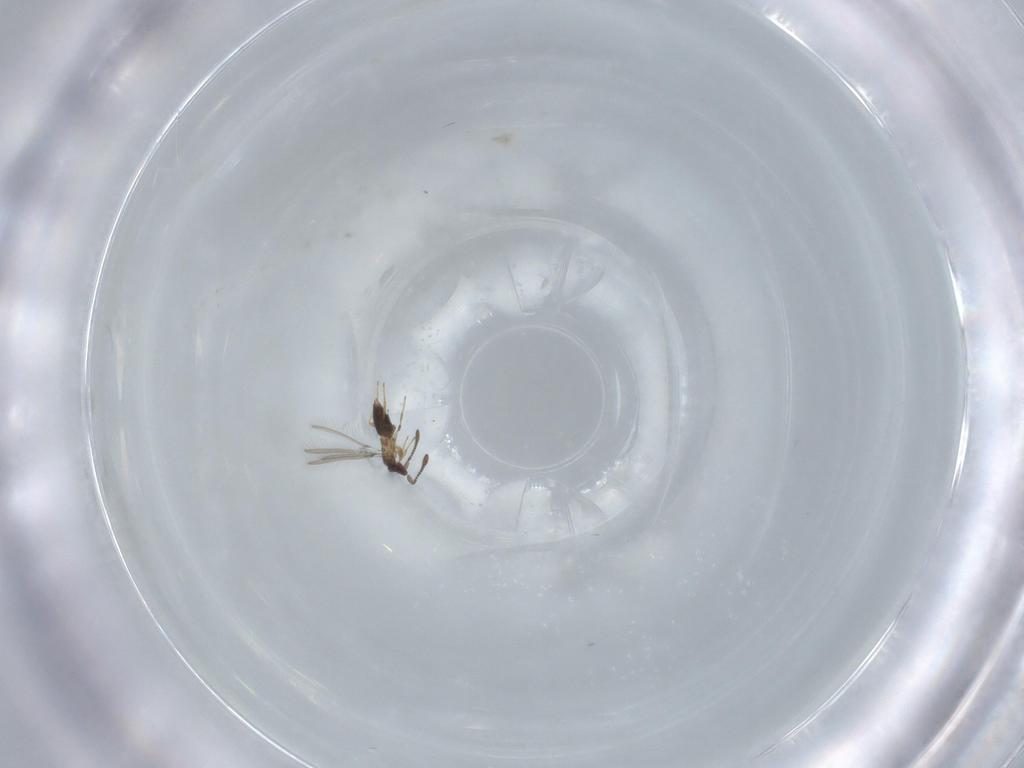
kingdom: Animalia
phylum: Arthropoda
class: Insecta
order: Hymenoptera
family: Mymaridae
